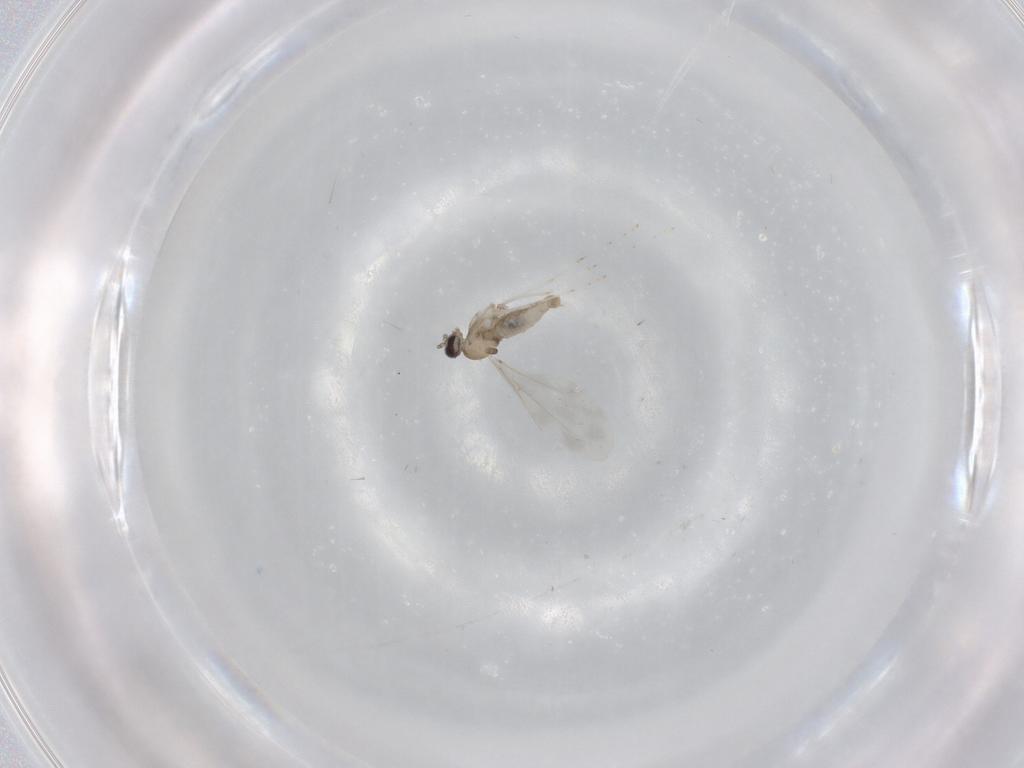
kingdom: Animalia
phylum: Arthropoda
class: Insecta
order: Diptera
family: Cecidomyiidae
